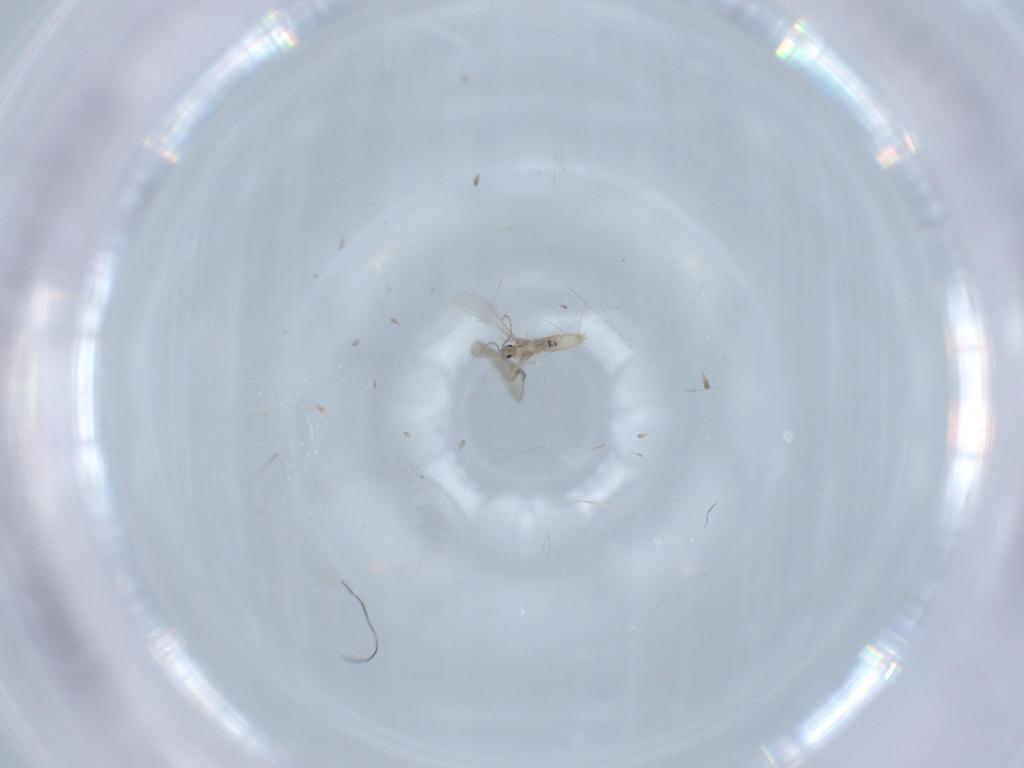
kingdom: Animalia
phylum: Arthropoda
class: Insecta
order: Diptera
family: Cecidomyiidae
